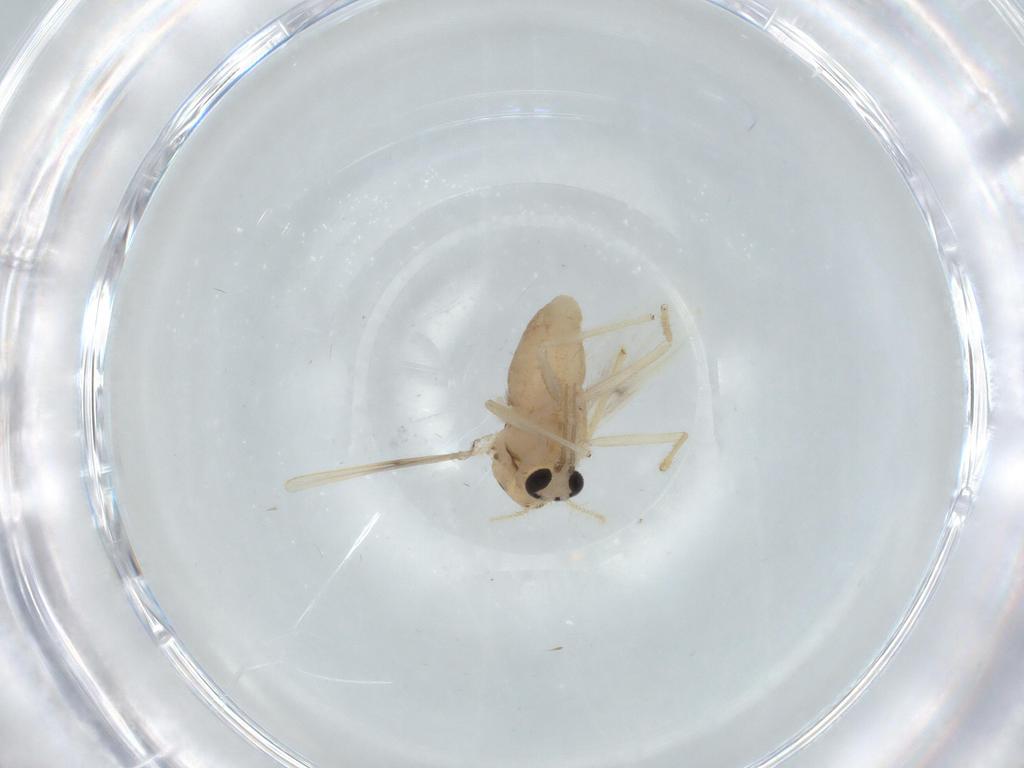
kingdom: Animalia
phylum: Arthropoda
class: Insecta
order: Diptera
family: Chironomidae
